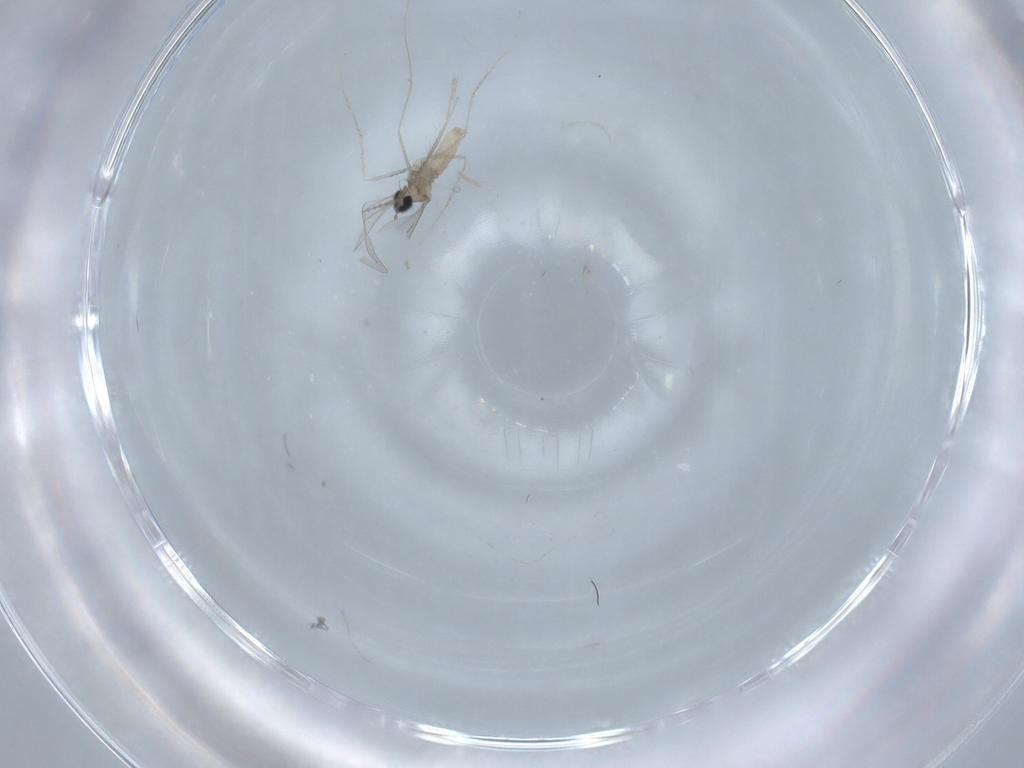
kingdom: Animalia
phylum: Arthropoda
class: Insecta
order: Diptera
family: Cecidomyiidae
